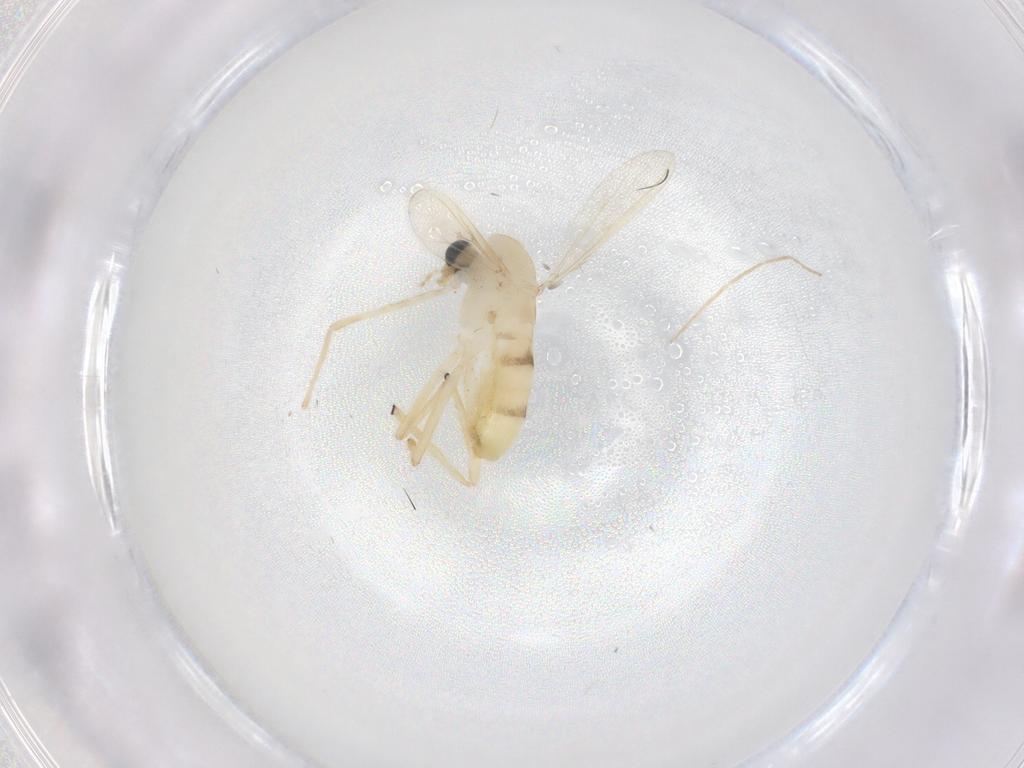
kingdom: Animalia
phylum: Arthropoda
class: Insecta
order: Diptera
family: Chironomidae
